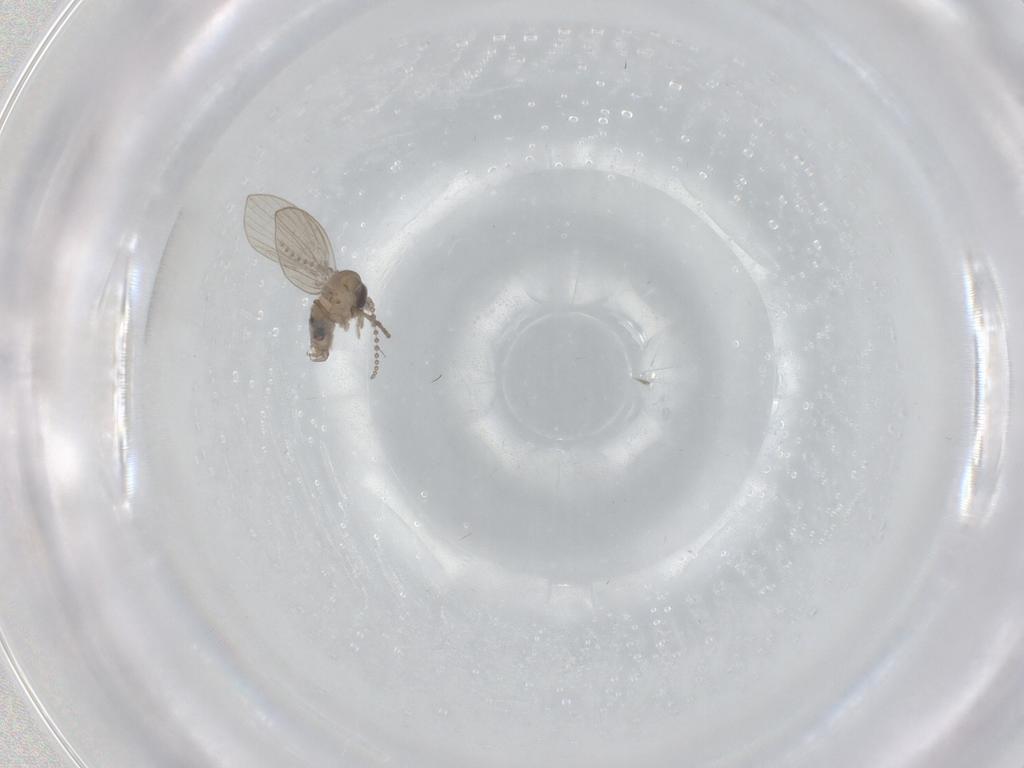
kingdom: Animalia
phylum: Arthropoda
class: Insecta
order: Diptera
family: Psychodidae
